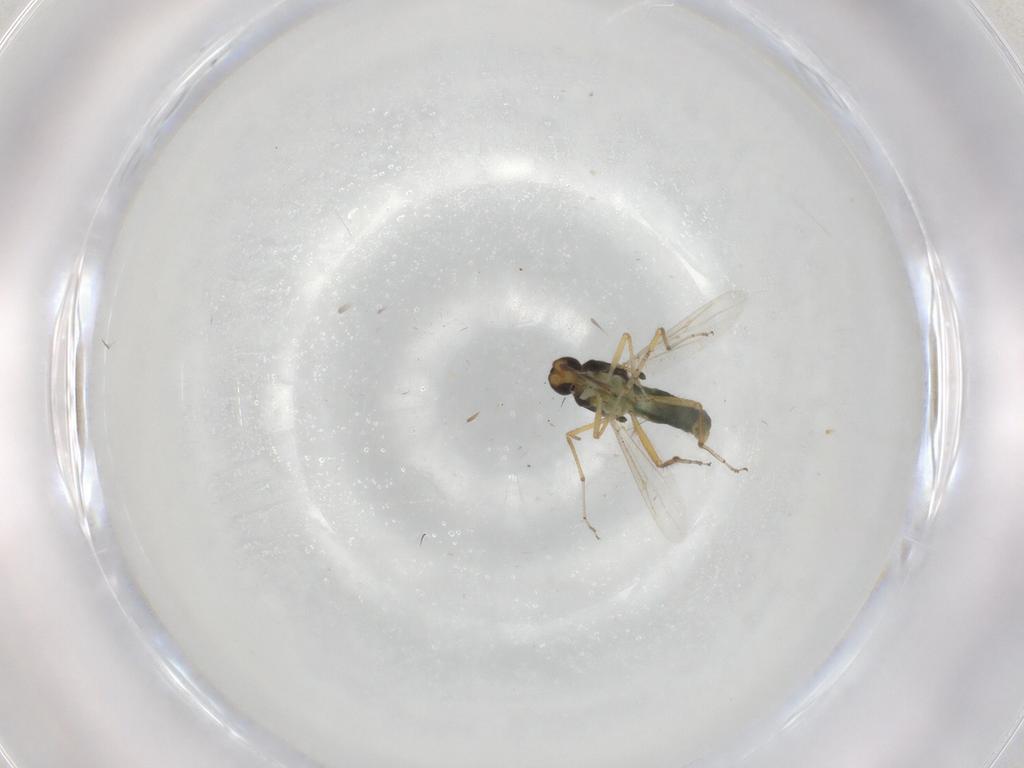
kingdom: Animalia
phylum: Arthropoda
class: Insecta
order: Diptera
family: Ceratopogonidae
